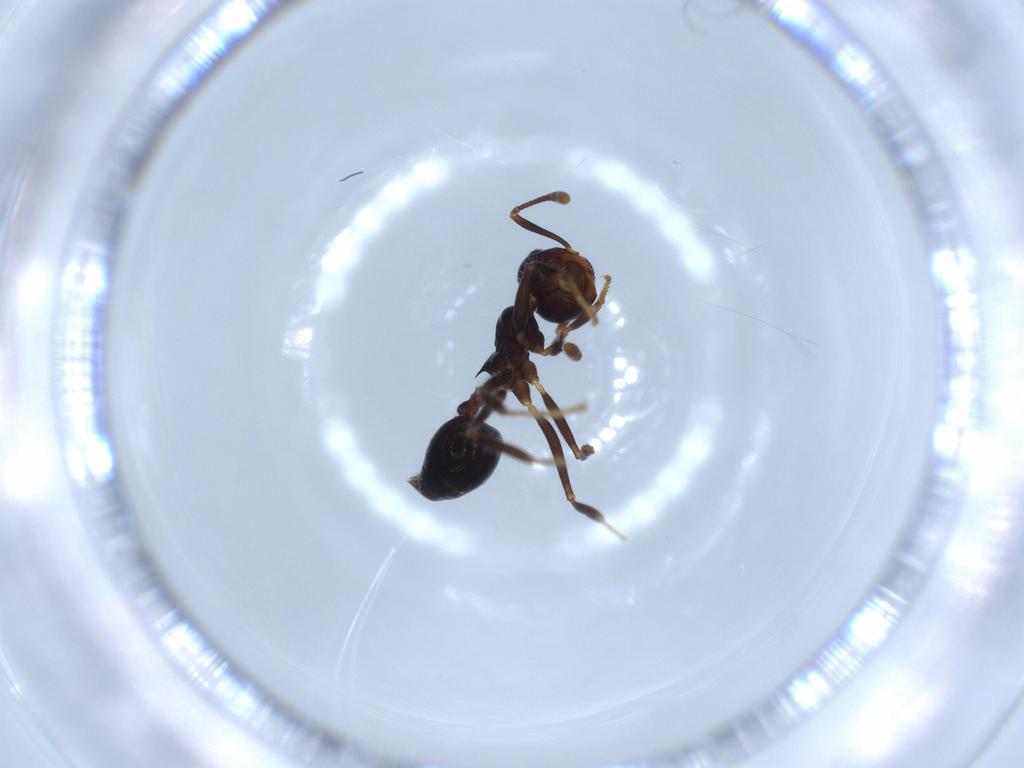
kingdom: Animalia
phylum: Arthropoda
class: Insecta
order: Hymenoptera
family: Formicidae
